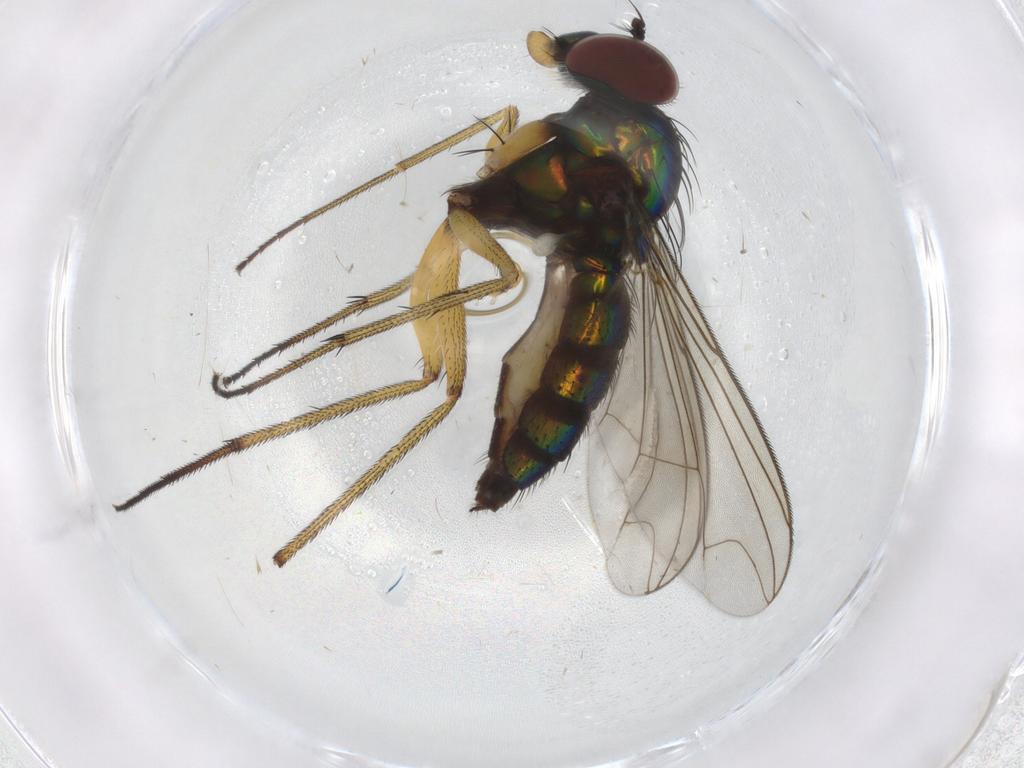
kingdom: Animalia
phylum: Arthropoda
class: Insecta
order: Diptera
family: Dolichopodidae
